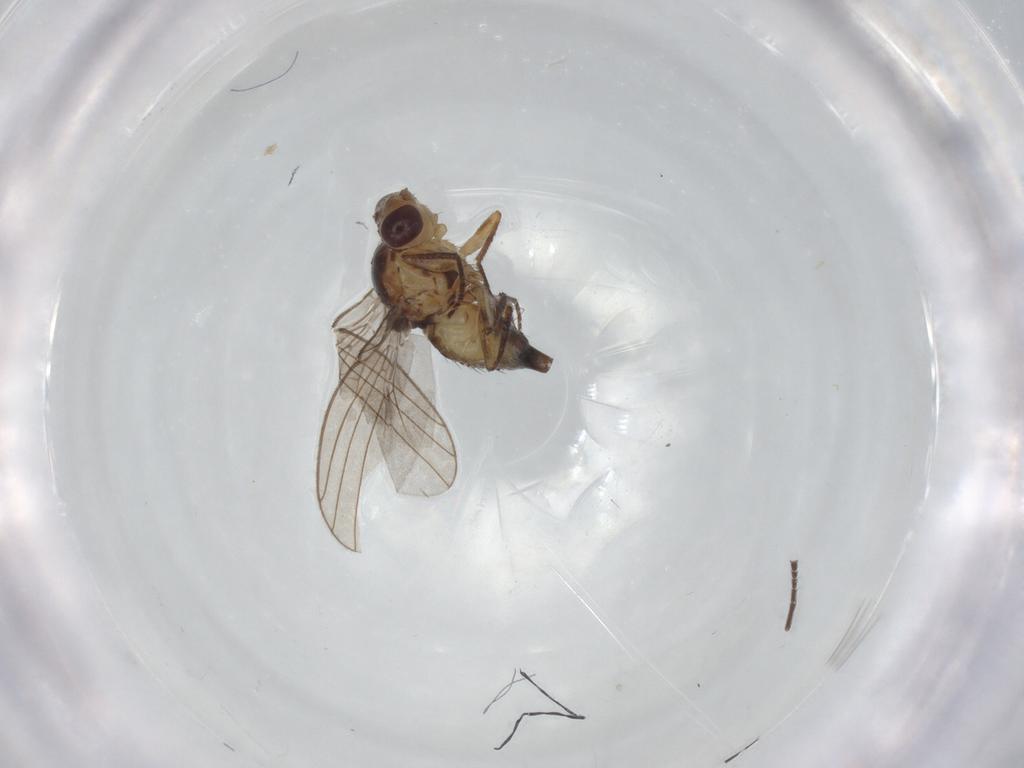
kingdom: Animalia
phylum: Arthropoda
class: Insecta
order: Diptera
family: Agromyzidae
